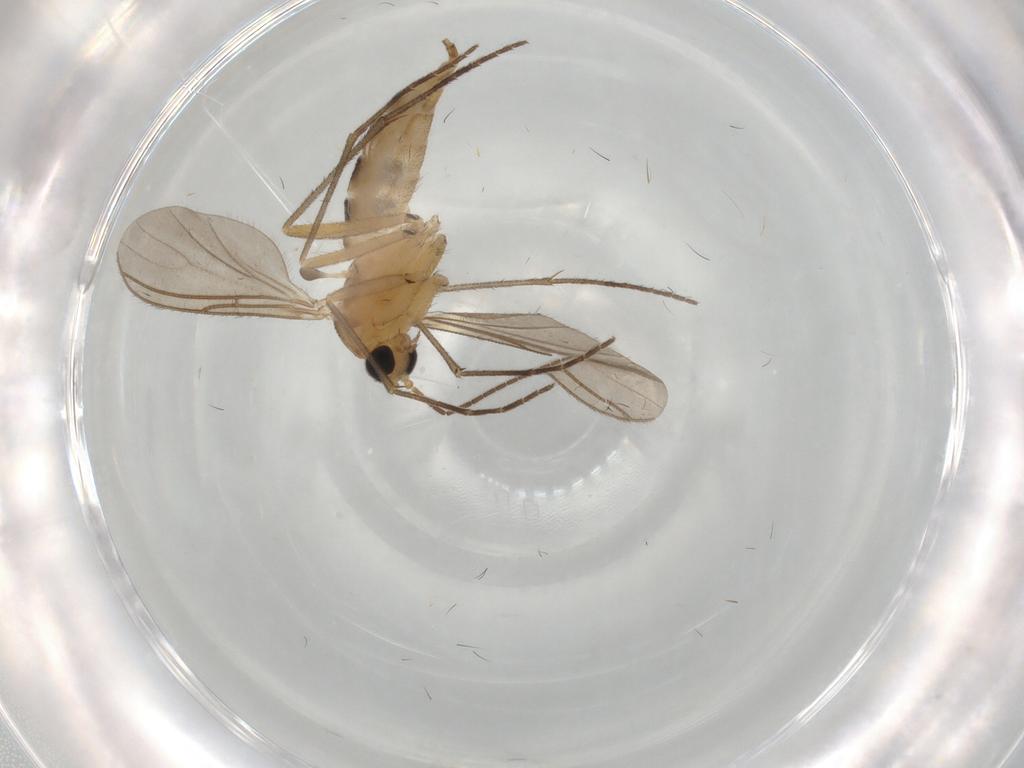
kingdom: Animalia
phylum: Arthropoda
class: Insecta
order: Diptera
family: Sciaridae
